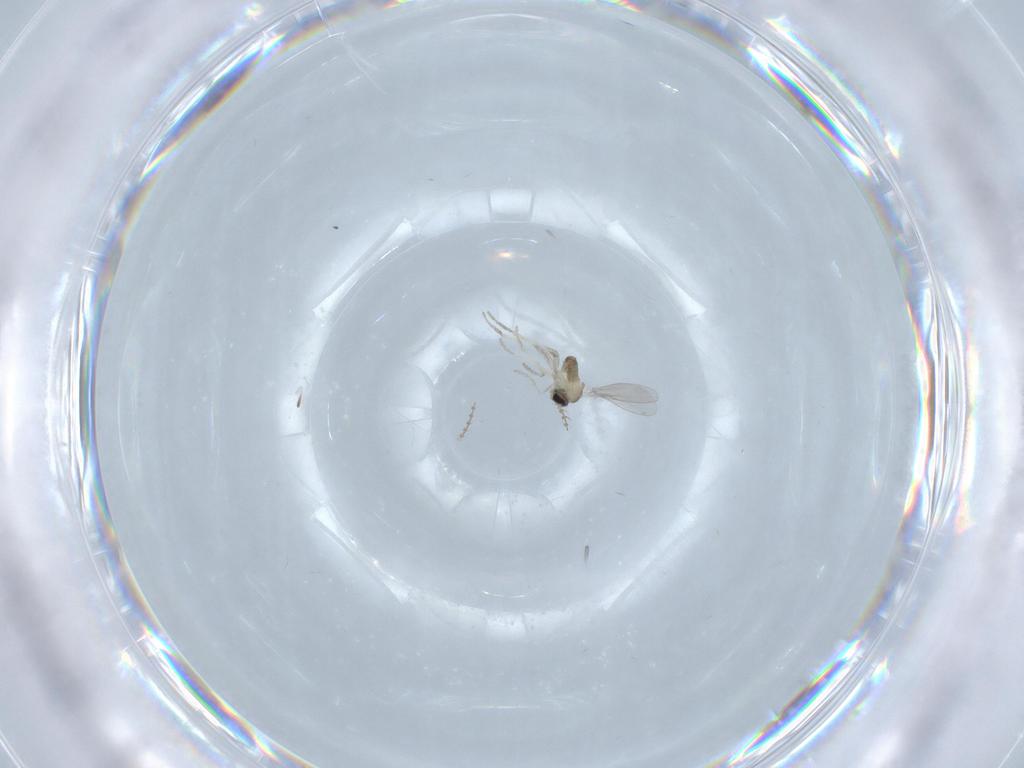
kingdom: Animalia
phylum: Arthropoda
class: Insecta
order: Diptera
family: Cecidomyiidae
